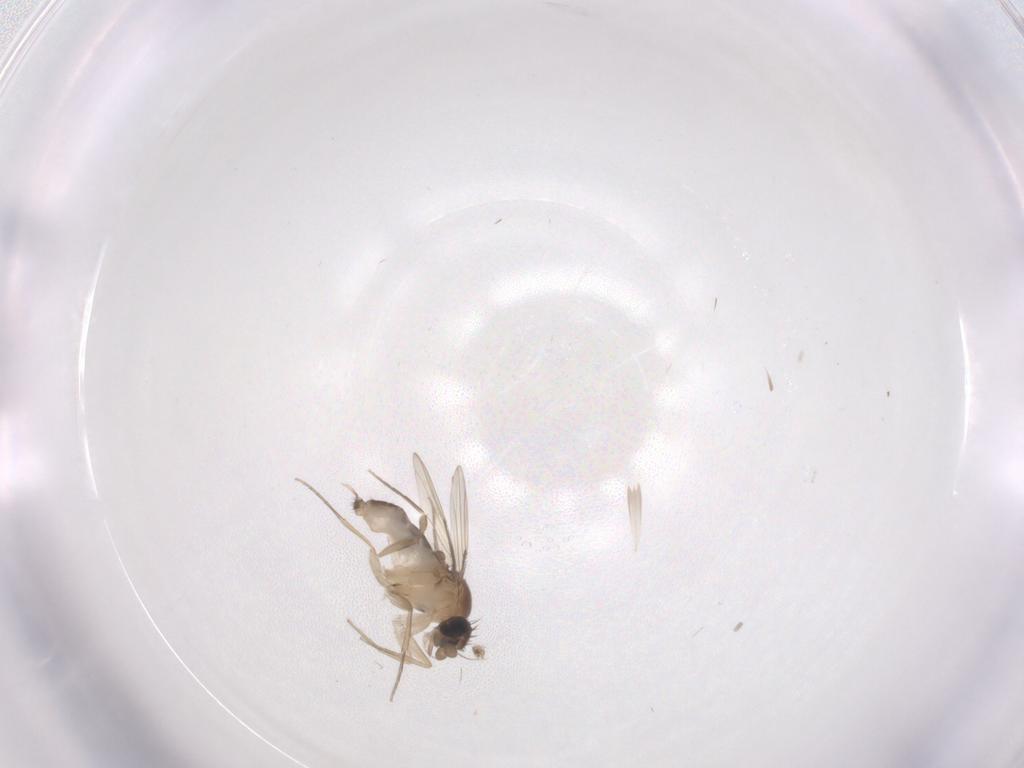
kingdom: Animalia
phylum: Arthropoda
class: Insecta
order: Diptera
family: Phoridae
